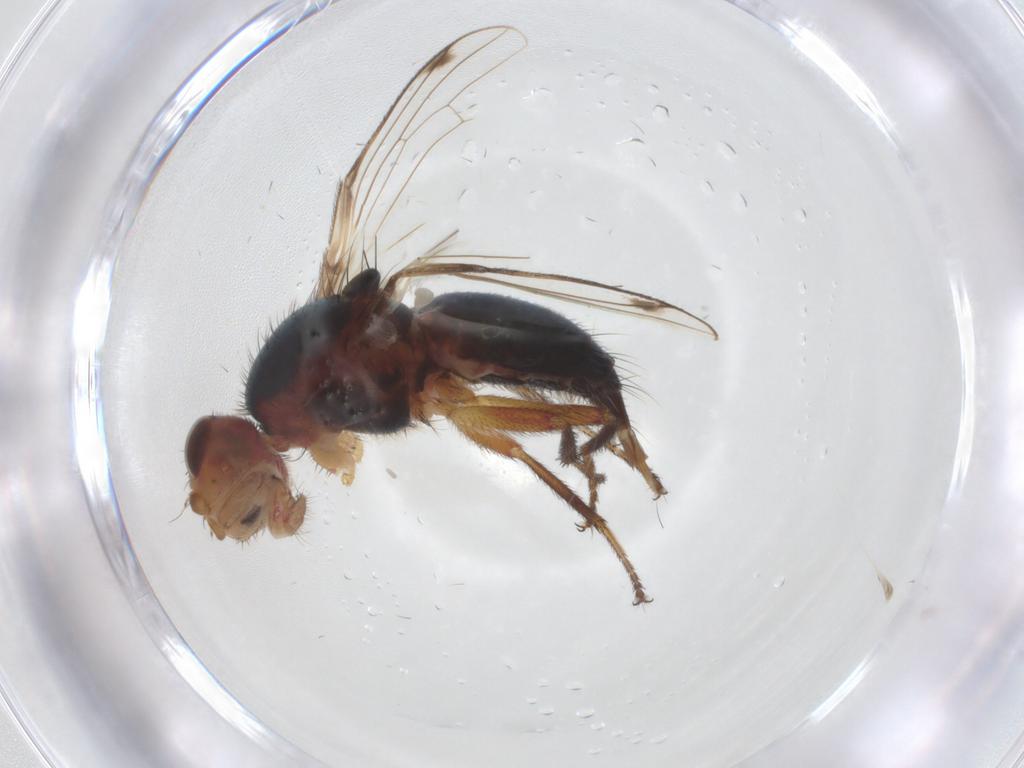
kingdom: Animalia
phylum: Arthropoda
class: Insecta
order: Diptera
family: Richardiidae
